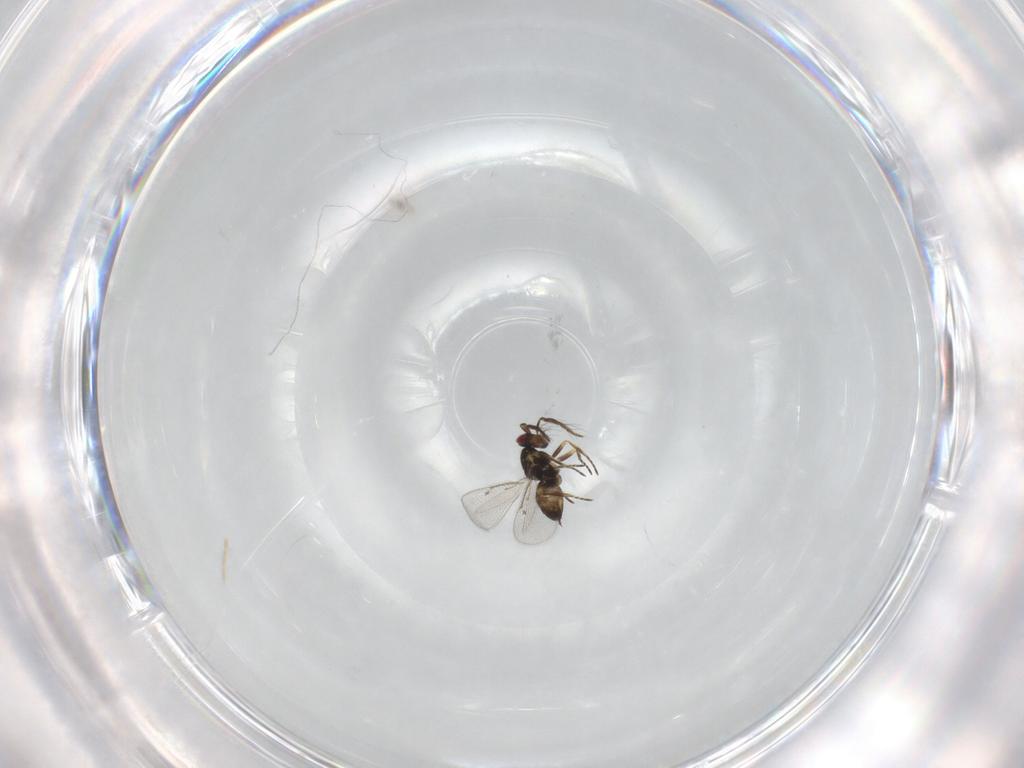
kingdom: Animalia
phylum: Arthropoda
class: Insecta
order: Hymenoptera
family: Eulophidae
